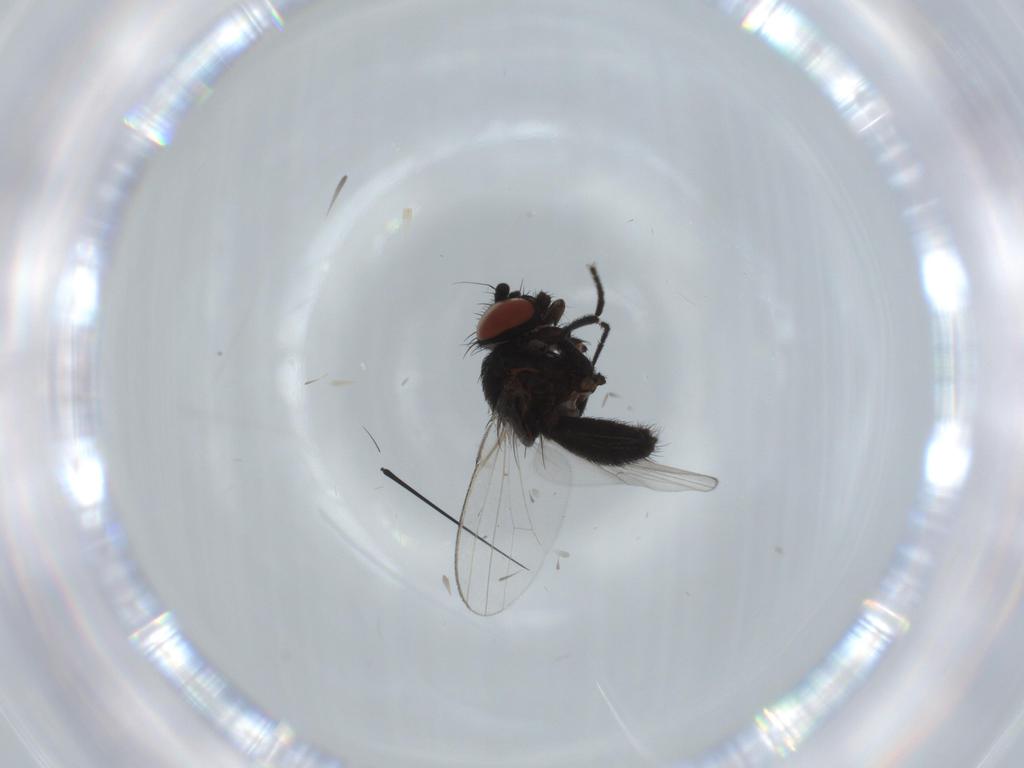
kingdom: Animalia
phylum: Arthropoda
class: Insecta
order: Diptera
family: Milichiidae
